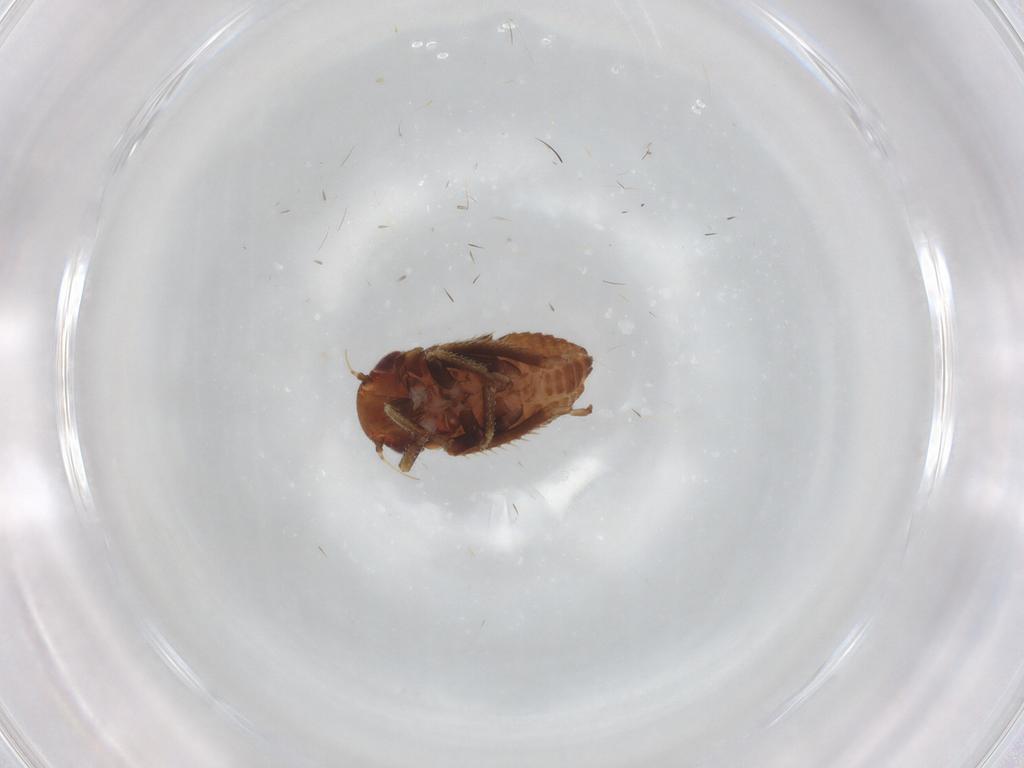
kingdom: Animalia
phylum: Arthropoda
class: Insecta
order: Hemiptera
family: Cicadellidae
